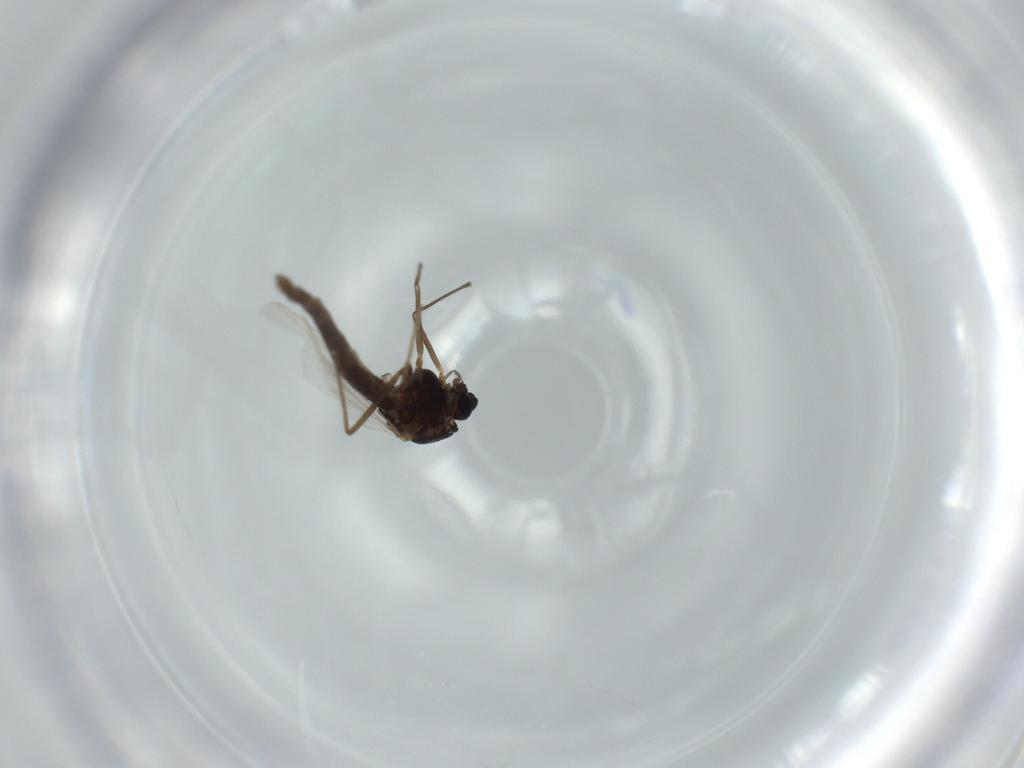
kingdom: Animalia
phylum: Arthropoda
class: Insecta
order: Diptera
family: Chironomidae
